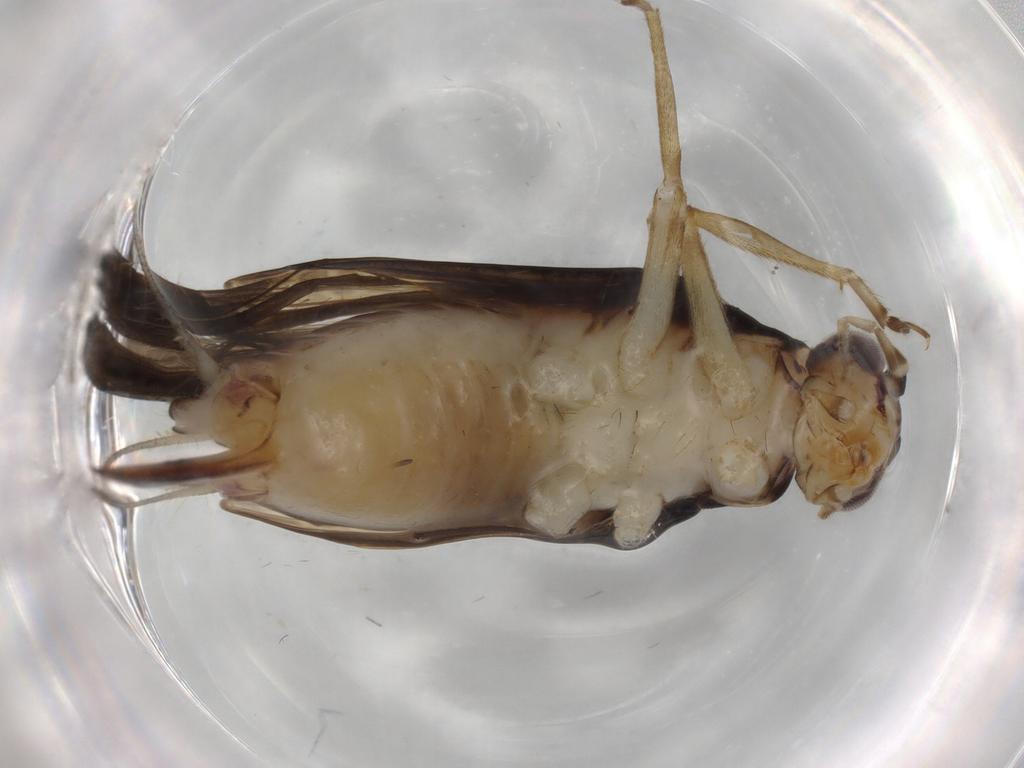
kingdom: Animalia
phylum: Arthropoda
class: Insecta
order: Orthoptera
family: Trigonidiidae
